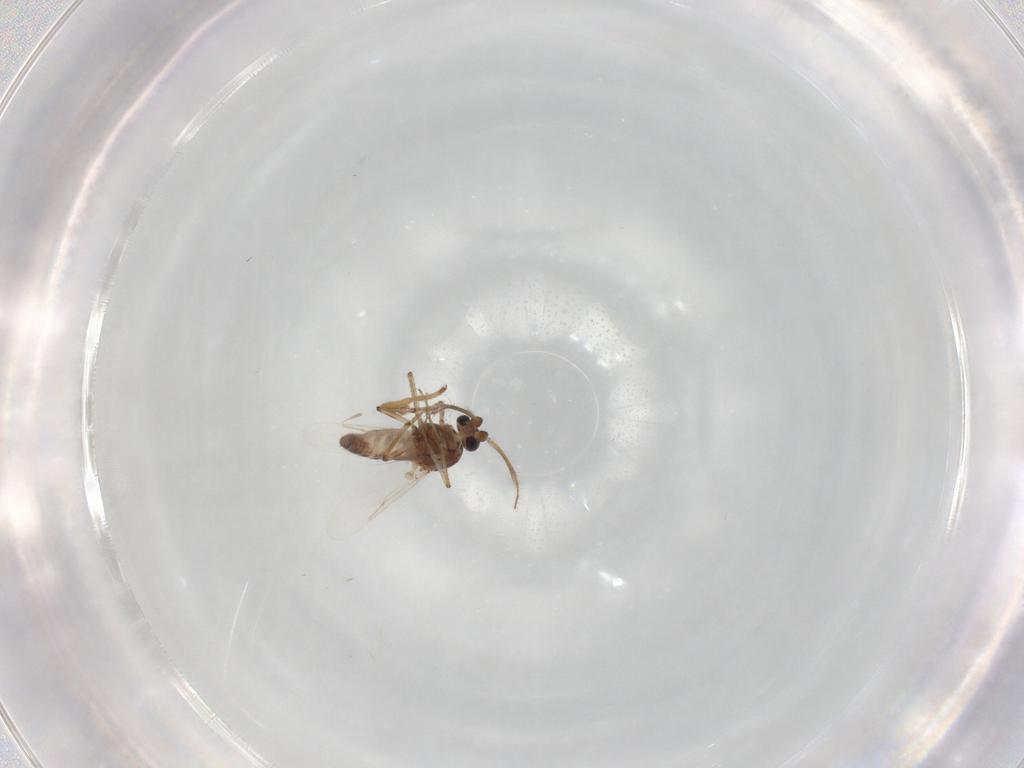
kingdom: Animalia
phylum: Arthropoda
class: Insecta
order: Diptera
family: Ceratopogonidae
